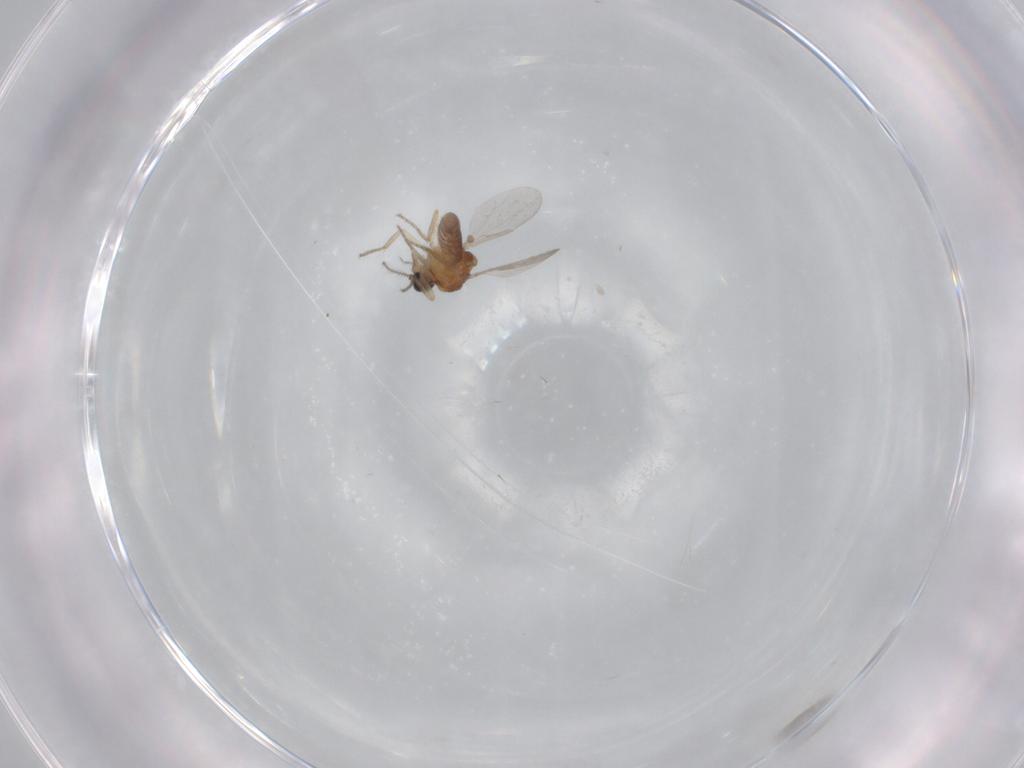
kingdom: Animalia
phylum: Arthropoda
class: Insecta
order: Diptera
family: Ceratopogonidae
